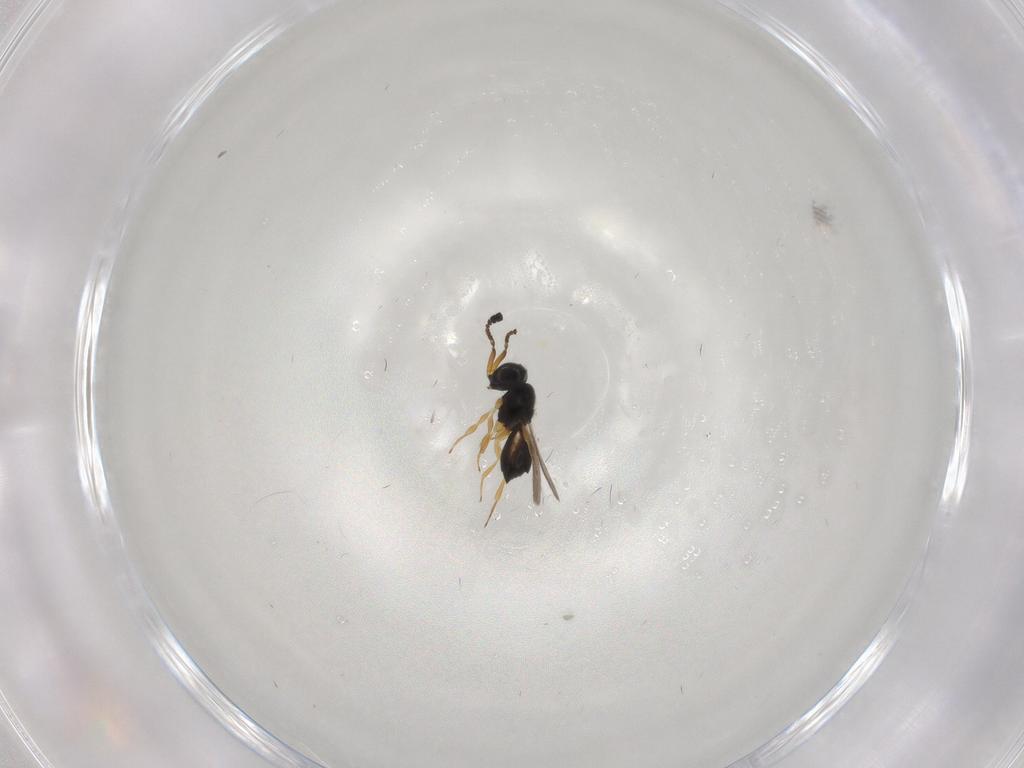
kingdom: Animalia
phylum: Arthropoda
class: Insecta
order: Hymenoptera
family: Scelionidae
